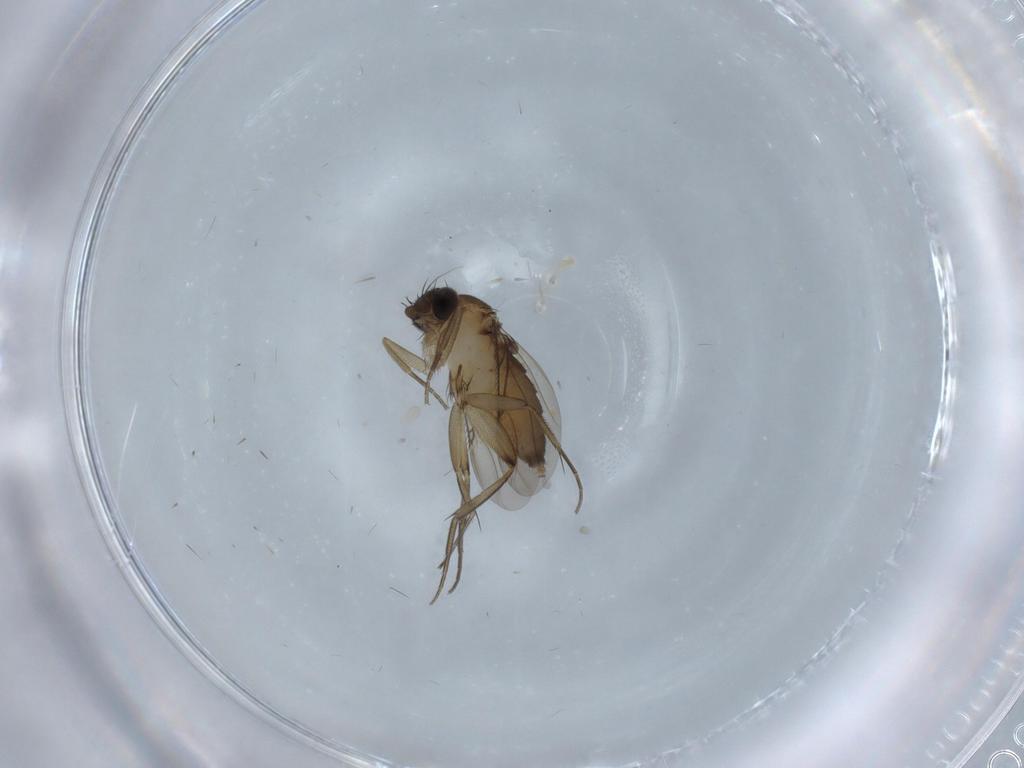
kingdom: Animalia
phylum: Arthropoda
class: Insecta
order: Diptera
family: Phoridae
